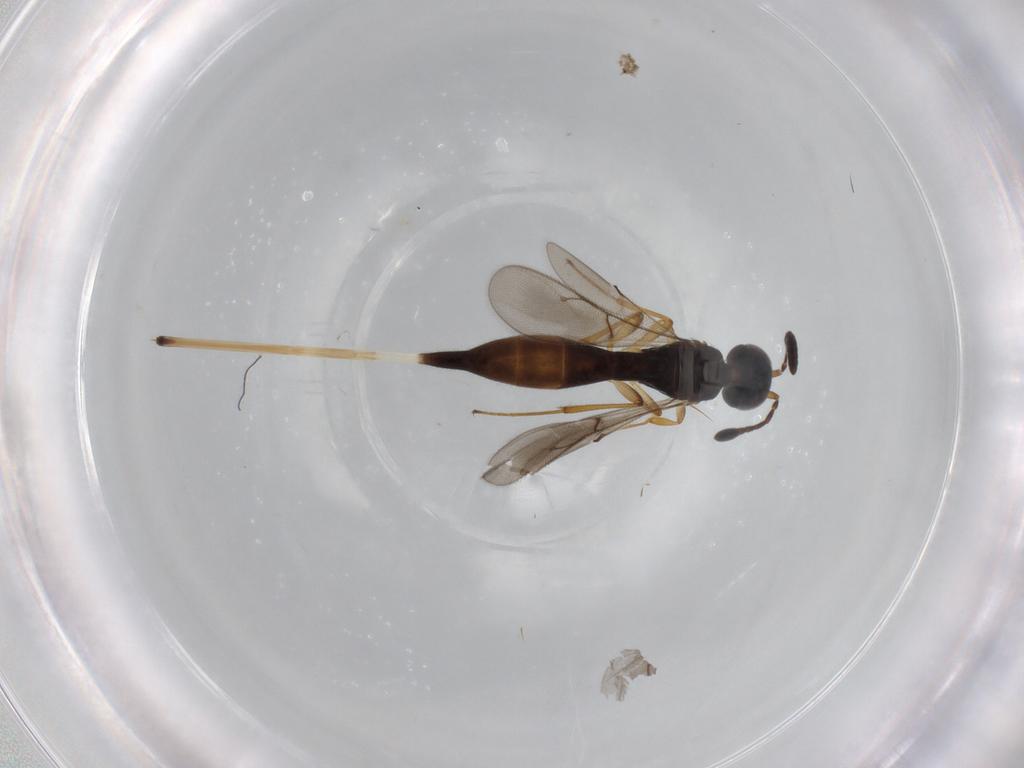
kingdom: Animalia
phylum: Arthropoda
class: Insecta
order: Hymenoptera
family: Scelionidae
